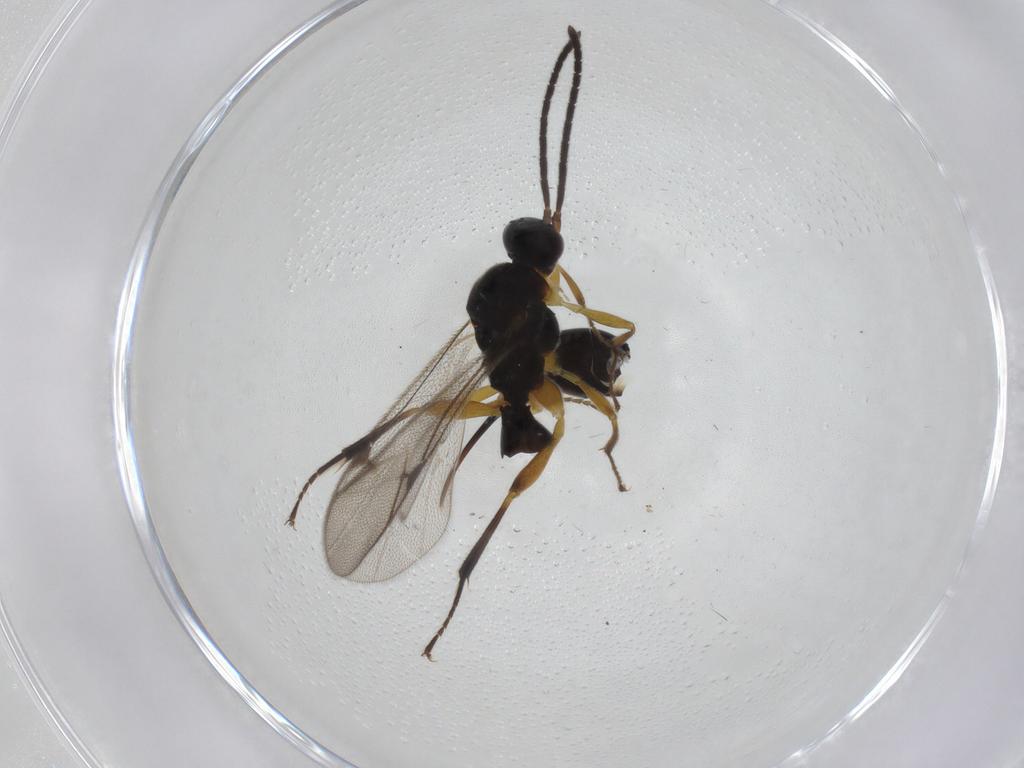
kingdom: Animalia
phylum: Arthropoda
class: Insecta
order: Hymenoptera
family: Proctotrupidae
